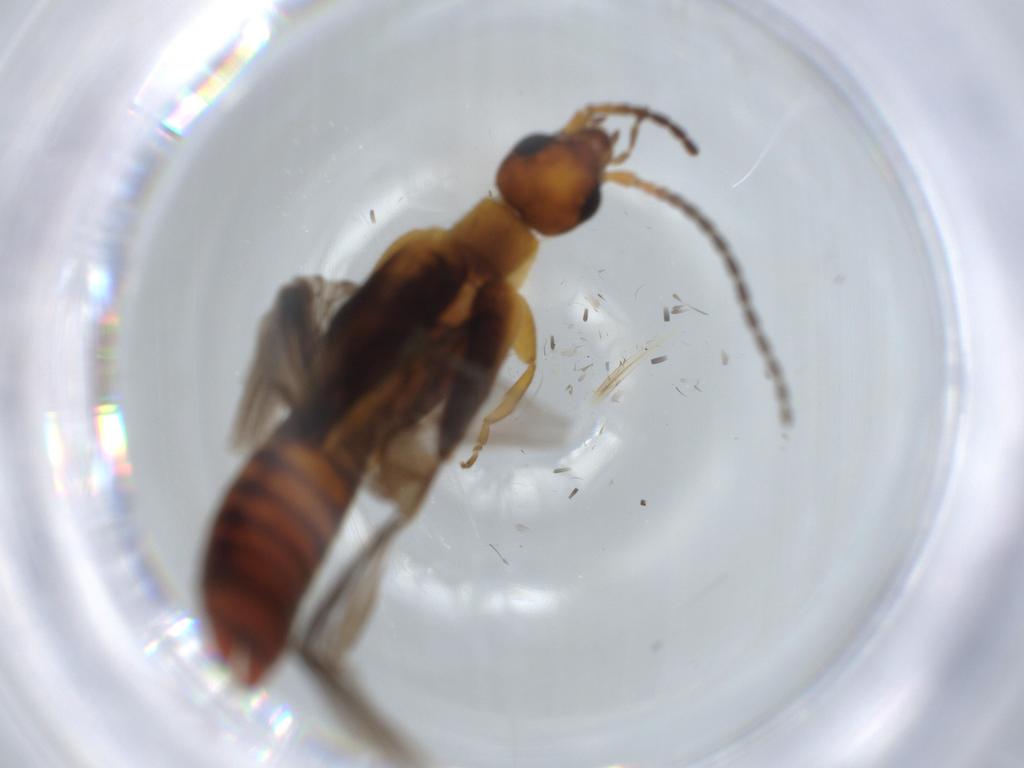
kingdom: Animalia
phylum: Arthropoda
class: Insecta
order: Dermaptera
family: Forficulidae
